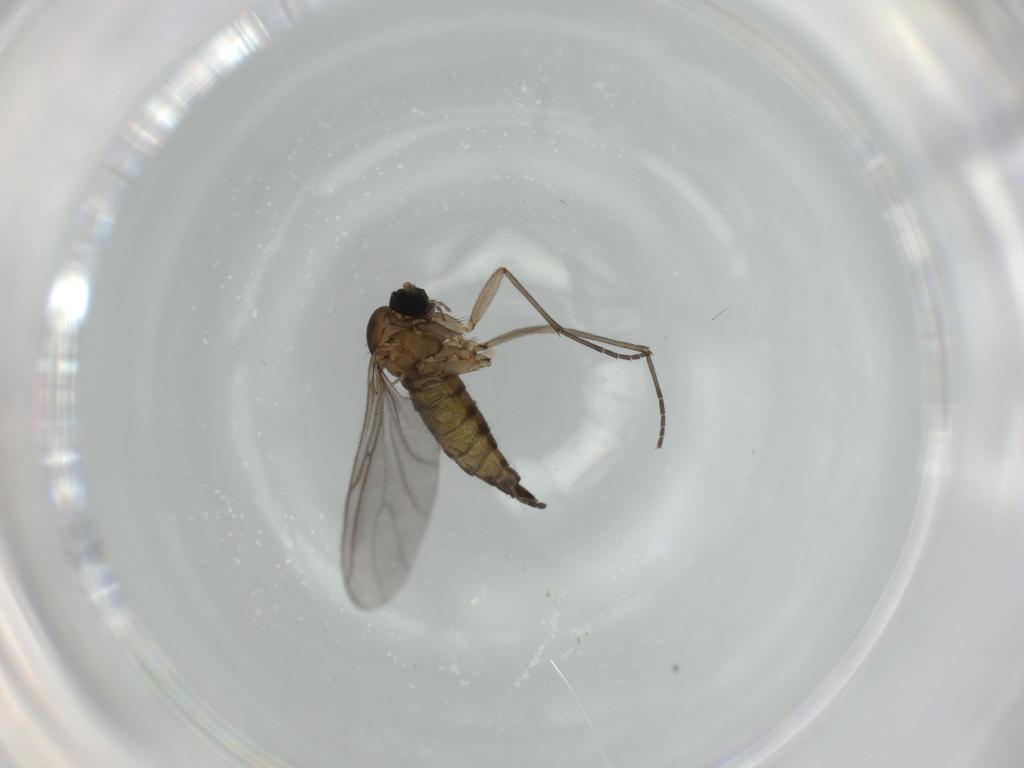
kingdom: Animalia
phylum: Arthropoda
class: Insecta
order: Diptera
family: Sciaridae
